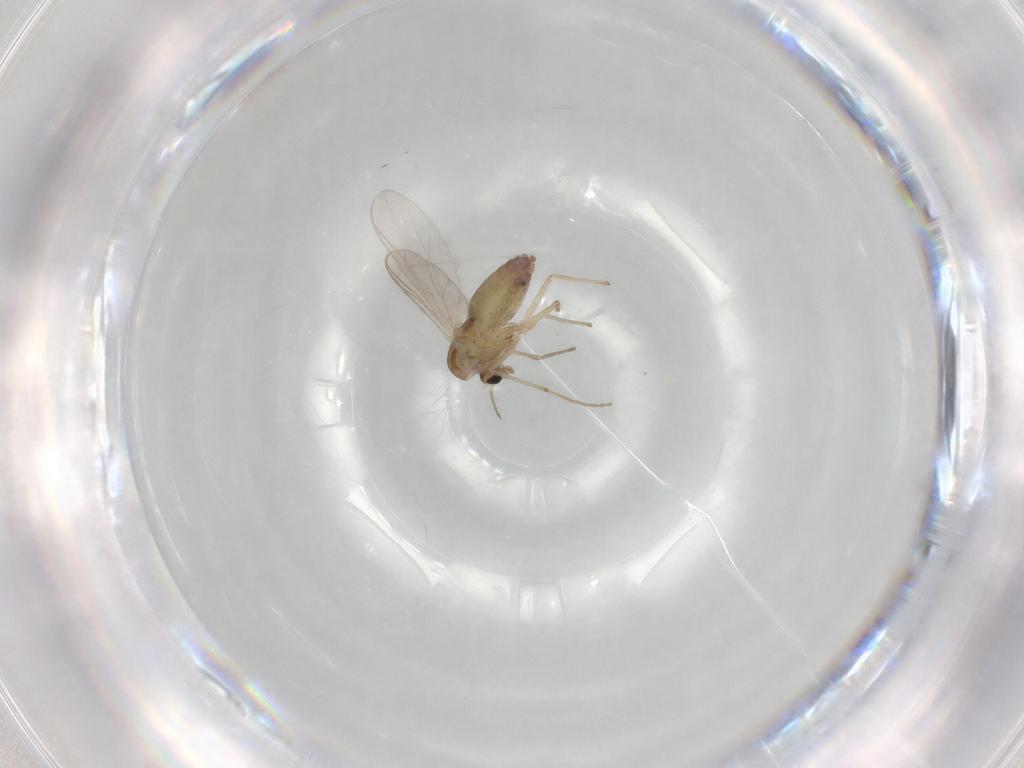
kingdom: Animalia
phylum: Arthropoda
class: Insecta
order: Diptera
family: Chironomidae
